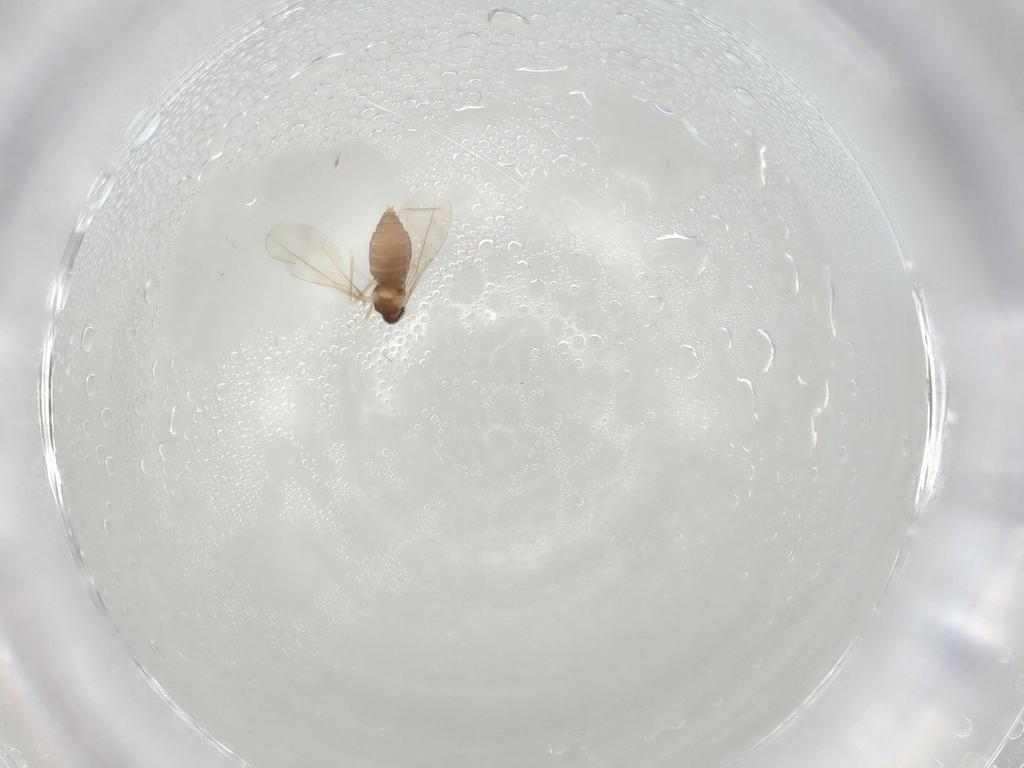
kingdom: Animalia
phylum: Arthropoda
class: Insecta
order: Diptera
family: Cecidomyiidae
